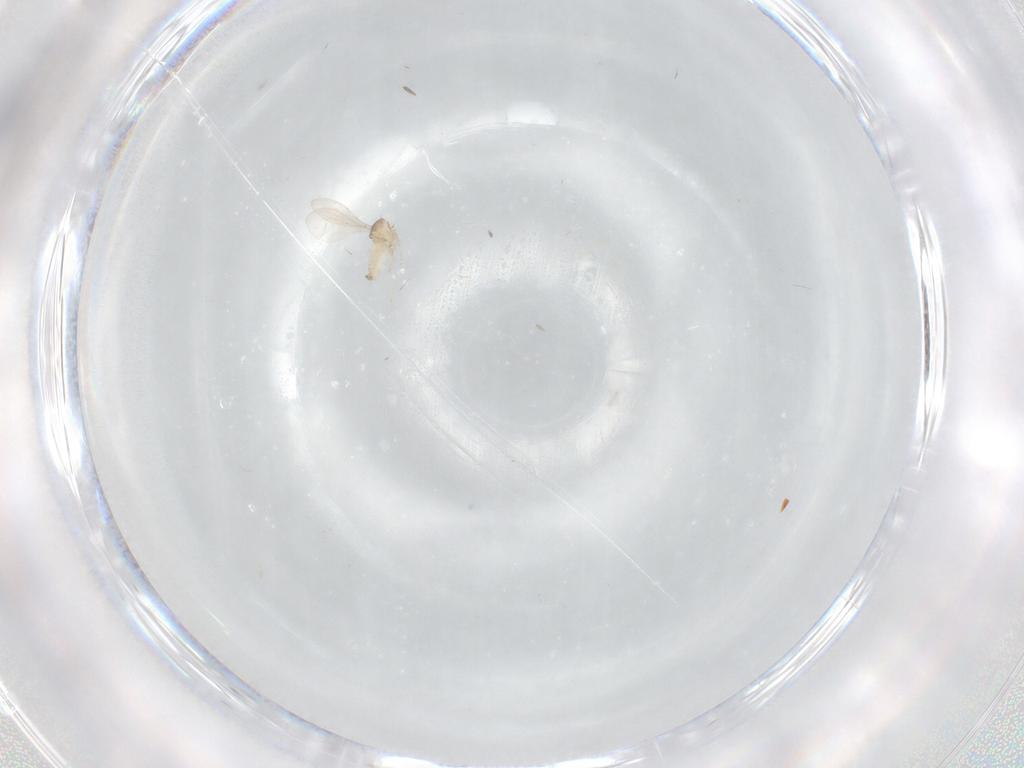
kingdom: Animalia
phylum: Arthropoda
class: Insecta
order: Diptera
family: Cecidomyiidae
